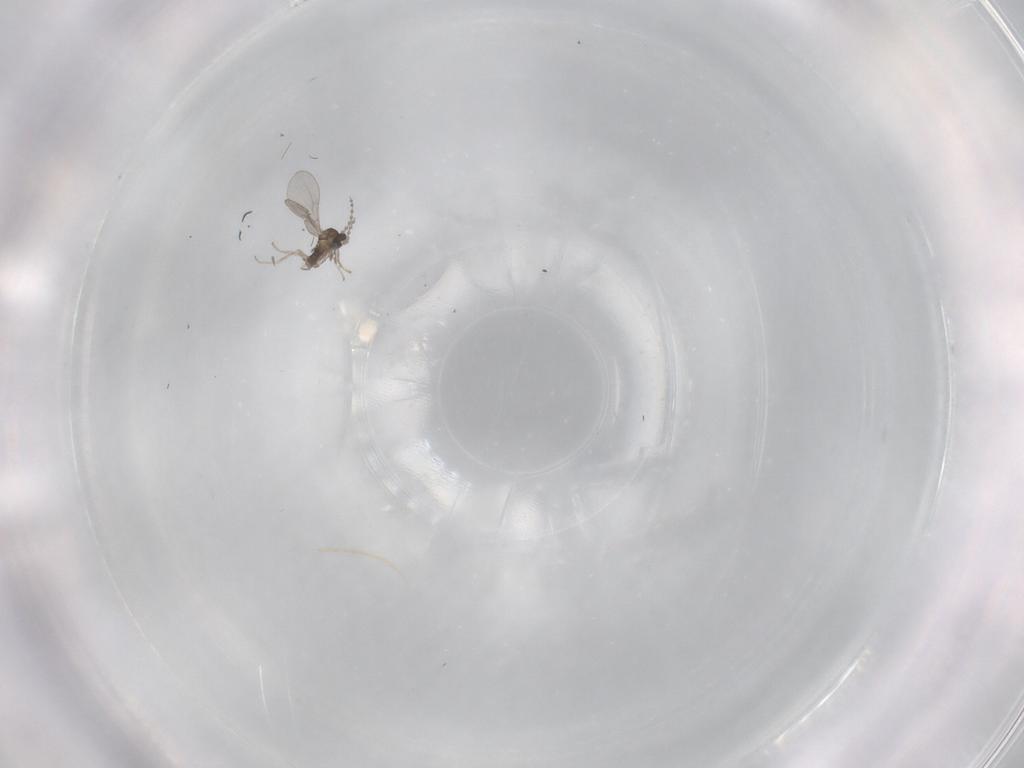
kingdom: Animalia
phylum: Arthropoda
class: Insecta
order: Diptera
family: Cecidomyiidae
